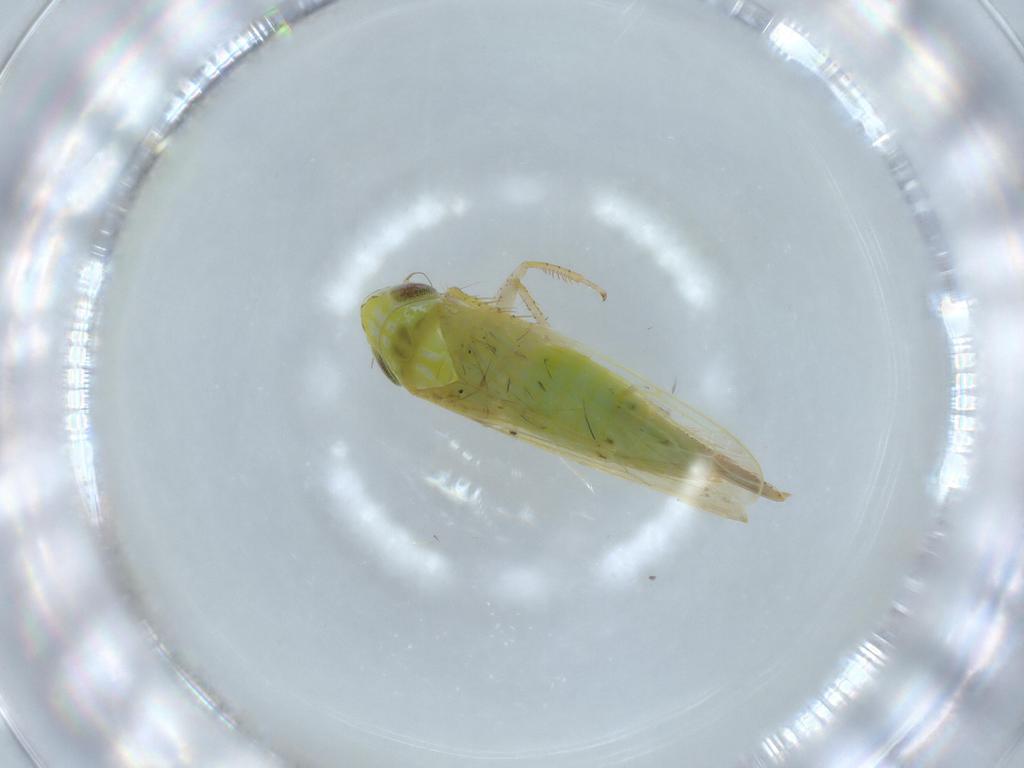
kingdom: Animalia
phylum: Arthropoda
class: Insecta
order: Hemiptera
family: Cicadellidae
